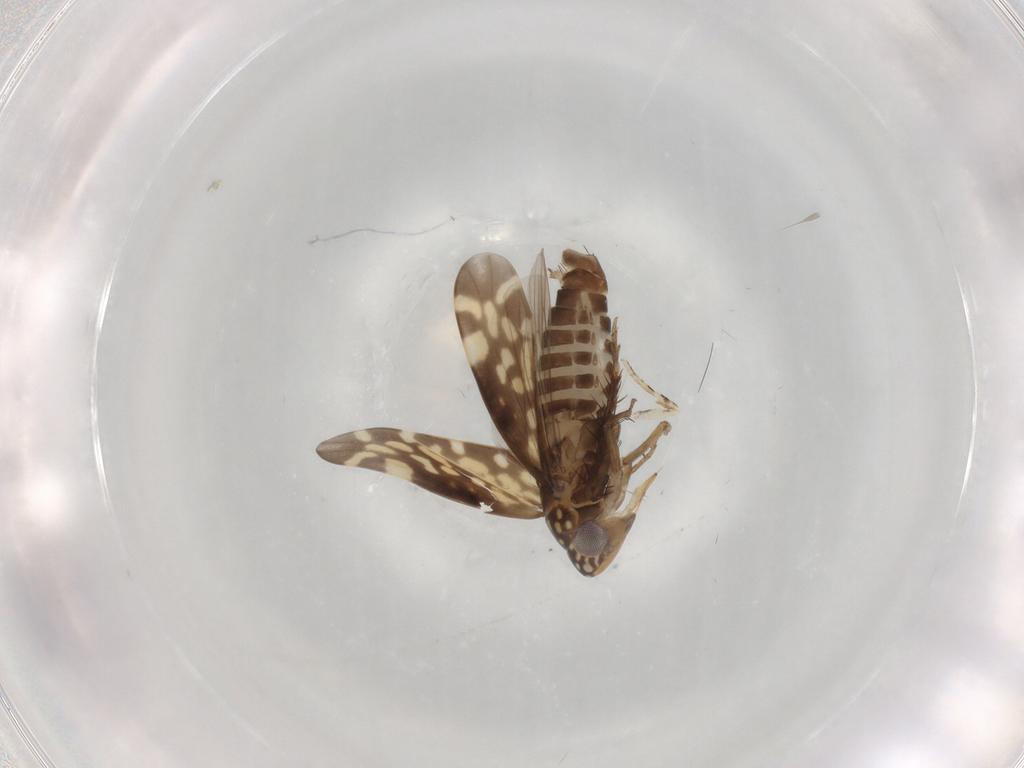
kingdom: Animalia
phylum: Arthropoda
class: Insecta
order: Hemiptera
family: Cicadellidae
